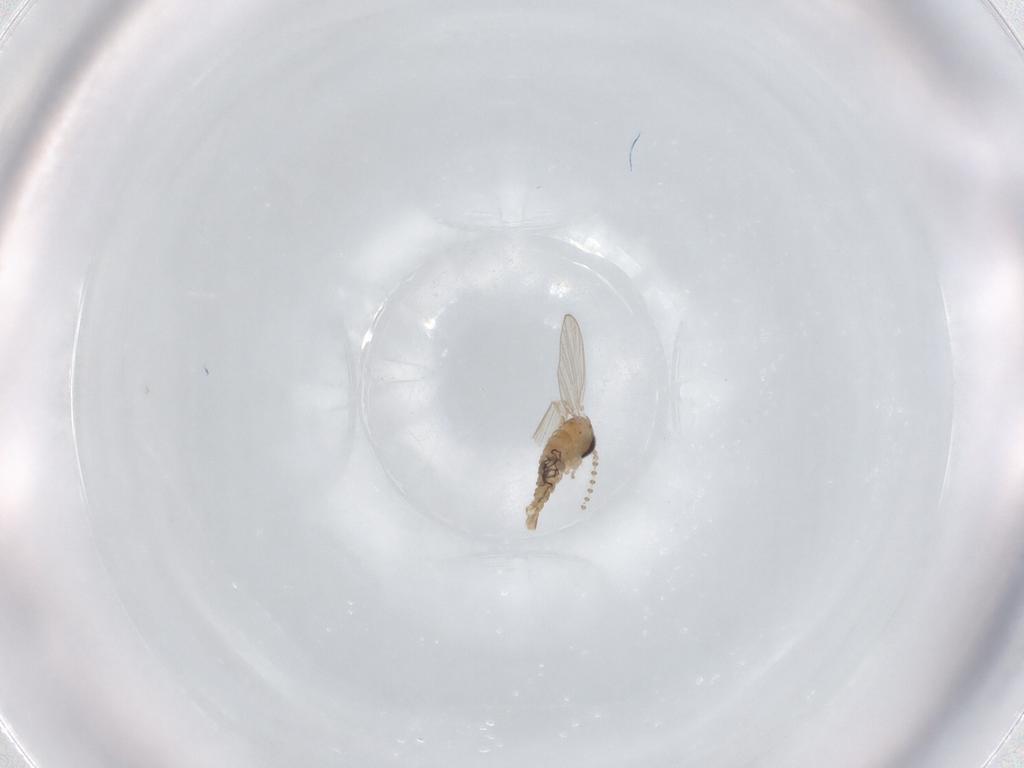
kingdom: Animalia
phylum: Arthropoda
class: Insecta
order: Diptera
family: Psychodidae
